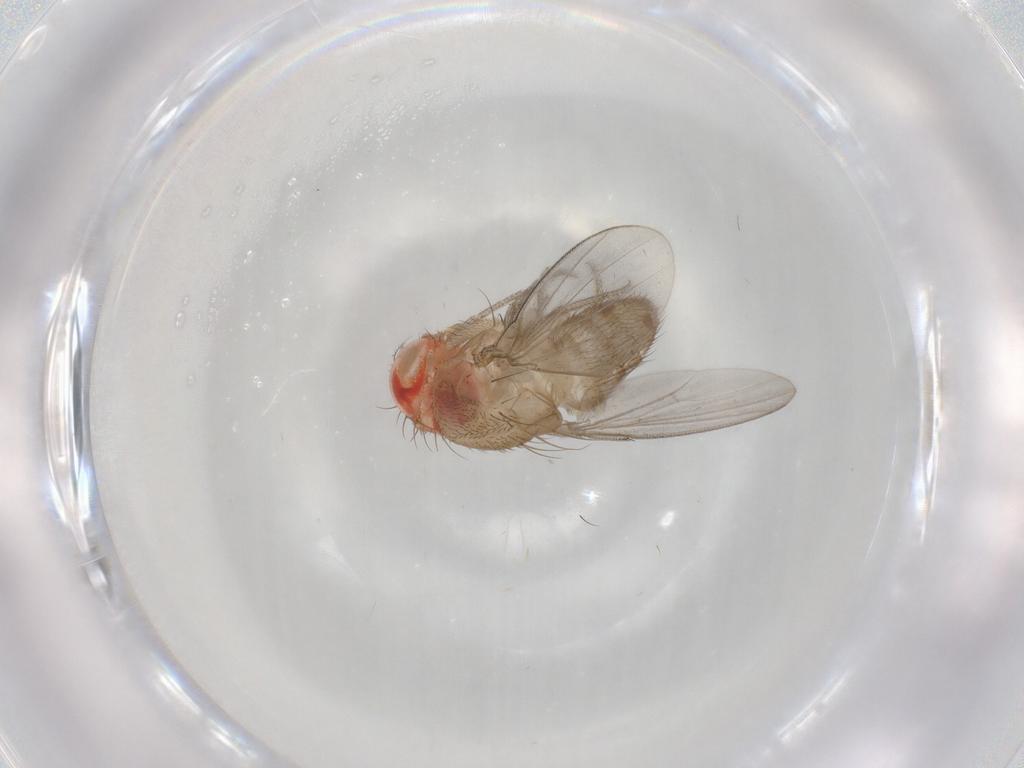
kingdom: Animalia
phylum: Arthropoda
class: Insecta
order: Diptera
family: Drosophilidae
